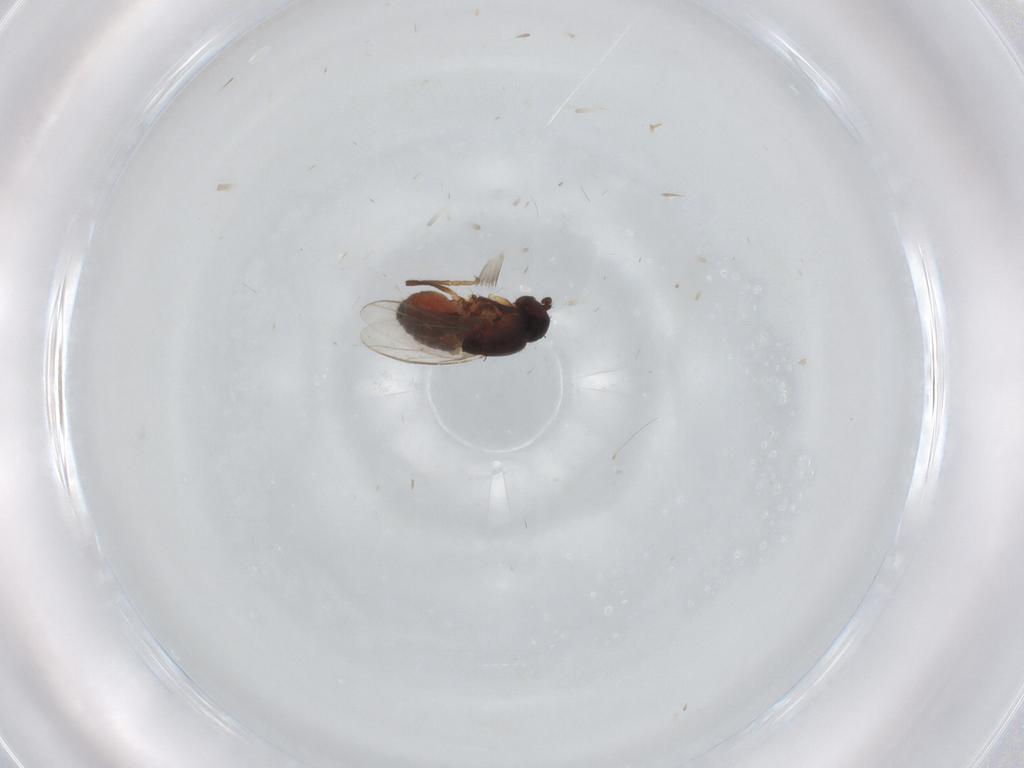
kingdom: Animalia
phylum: Arthropoda
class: Insecta
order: Diptera
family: Sphaeroceridae
